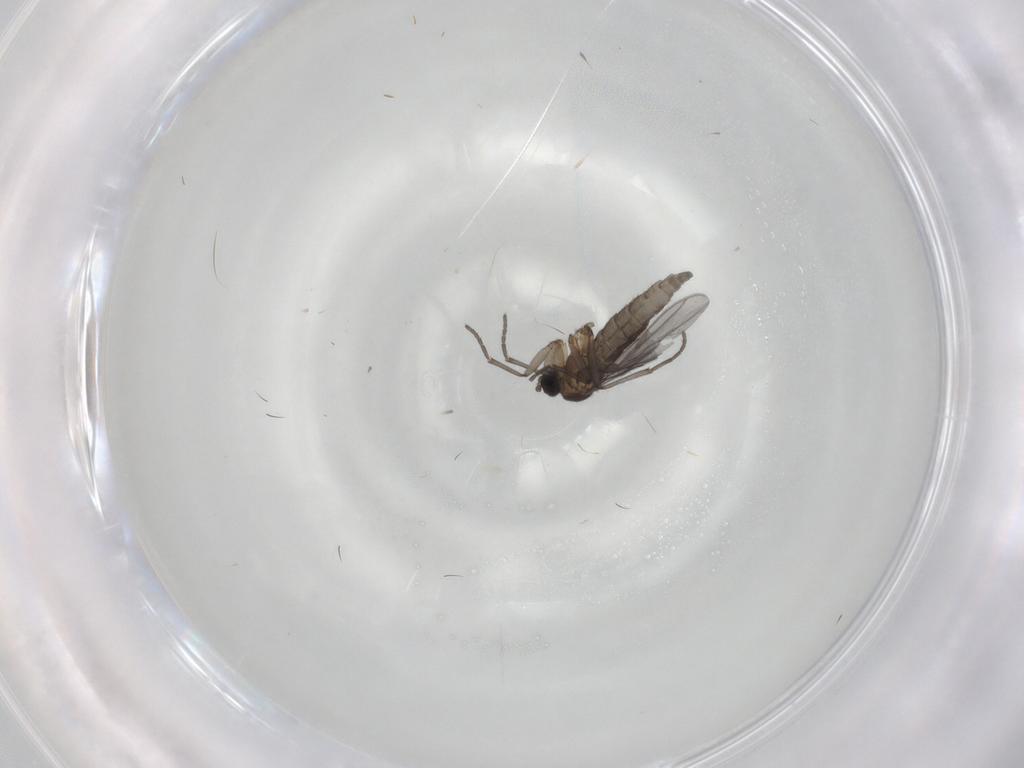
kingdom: Animalia
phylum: Arthropoda
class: Insecta
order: Diptera
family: Sciaridae
